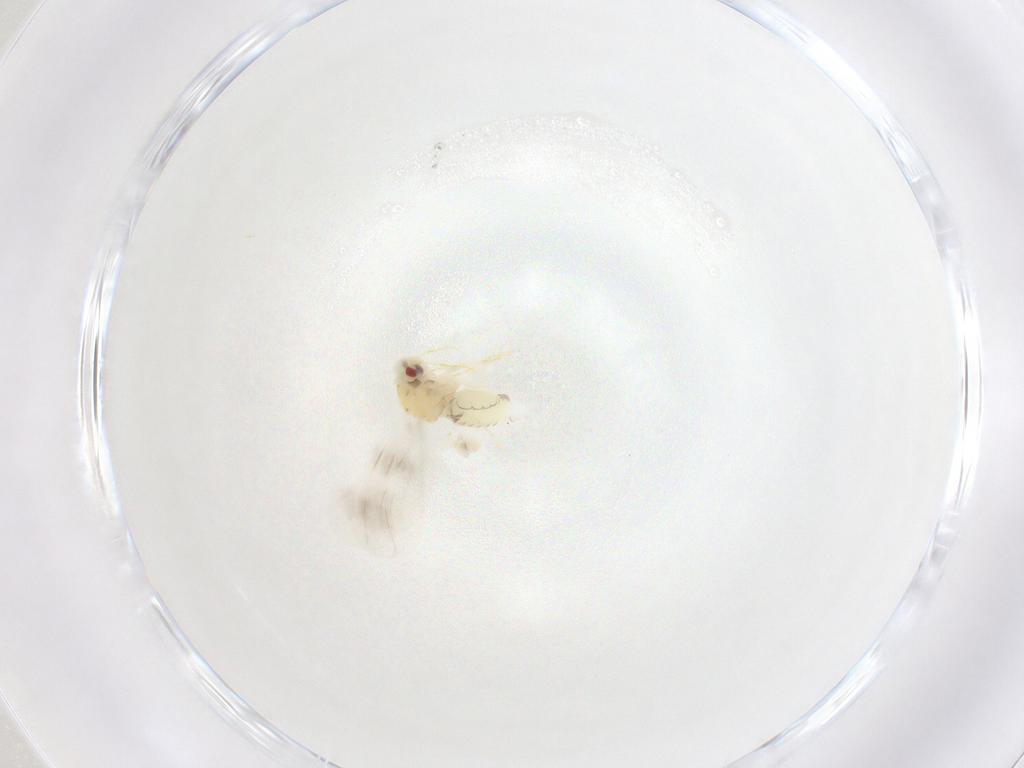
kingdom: Animalia
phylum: Arthropoda
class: Insecta
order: Hemiptera
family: Aleyrodidae
